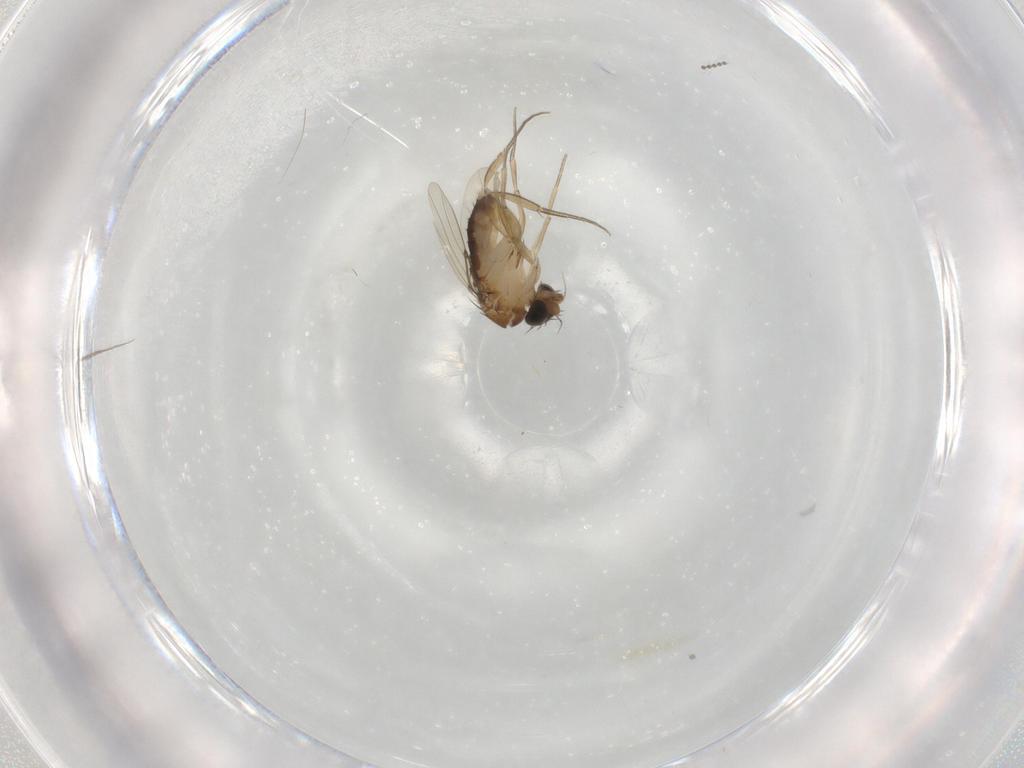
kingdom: Animalia
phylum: Arthropoda
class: Insecta
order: Diptera
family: Phoridae
